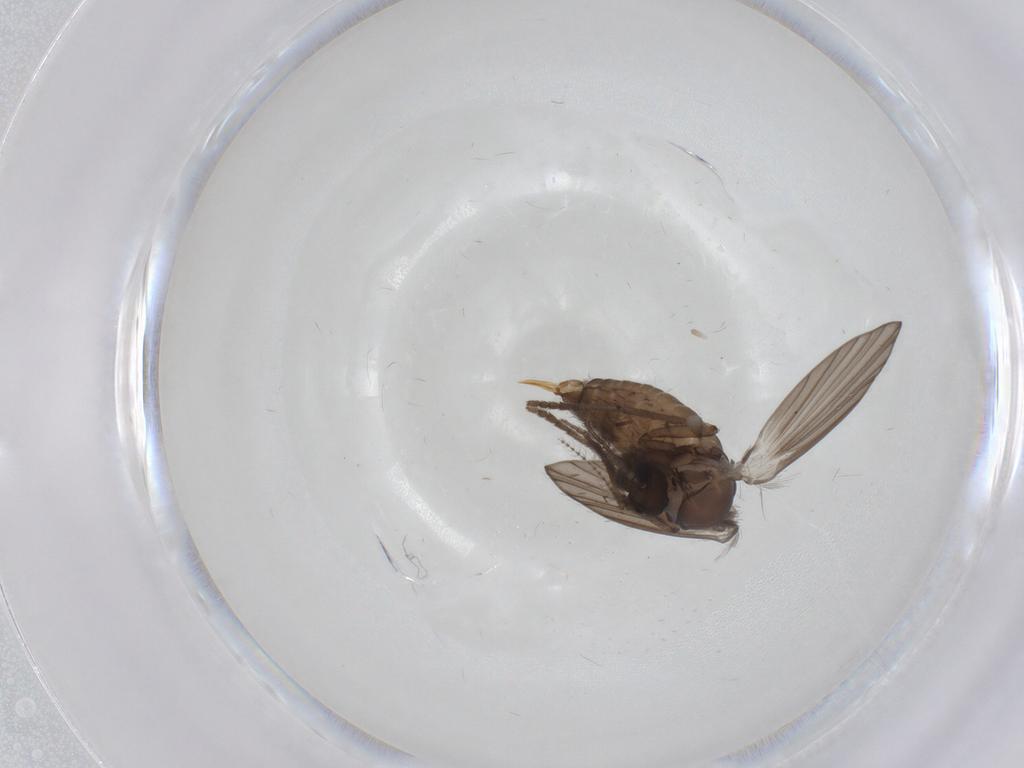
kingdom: Animalia
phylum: Arthropoda
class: Insecta
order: Diptera
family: Psychodidae
